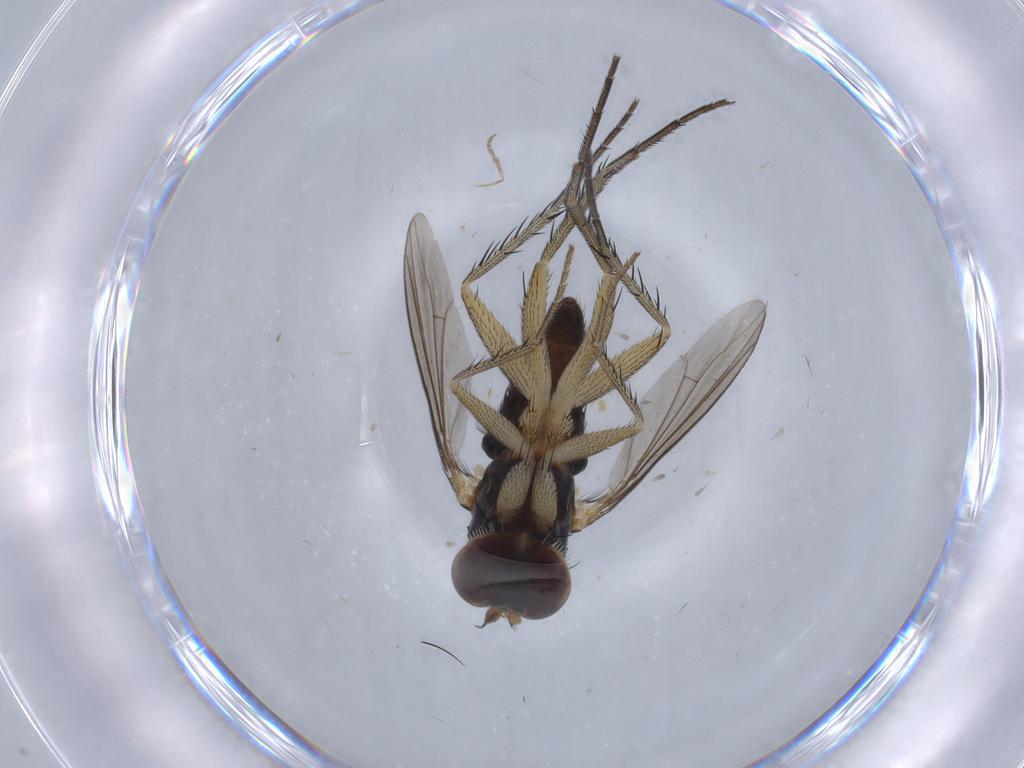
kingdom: Animalia
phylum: Arthropoda
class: Insecta
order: Diptera
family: Dolichopodidae
